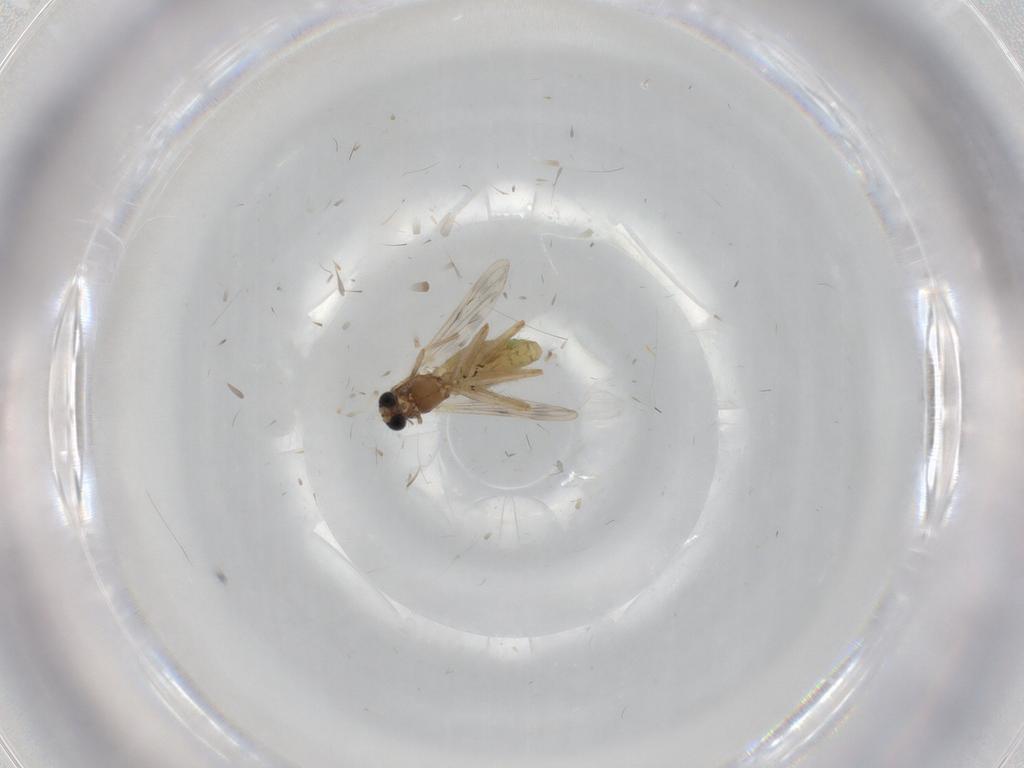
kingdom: Animalia
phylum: Arthropoda
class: Insecta
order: Diptera
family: Chironomidae
